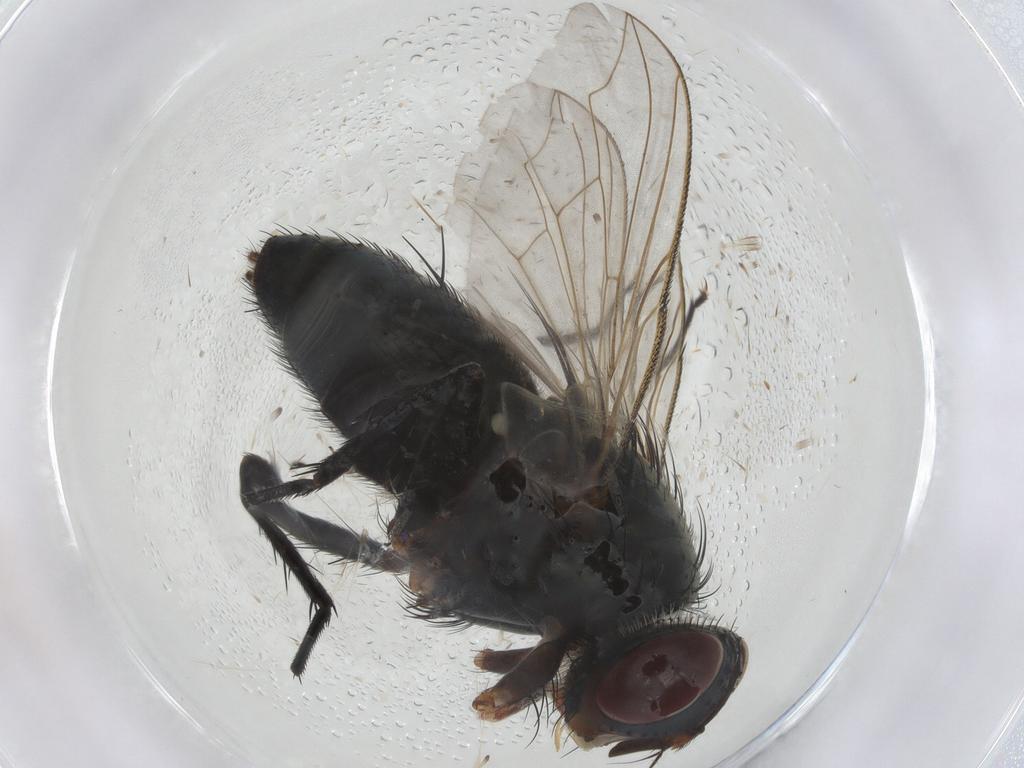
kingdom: Animalia
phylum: Arthropoda
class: Insecta
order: Diptera
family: Tachinidae
